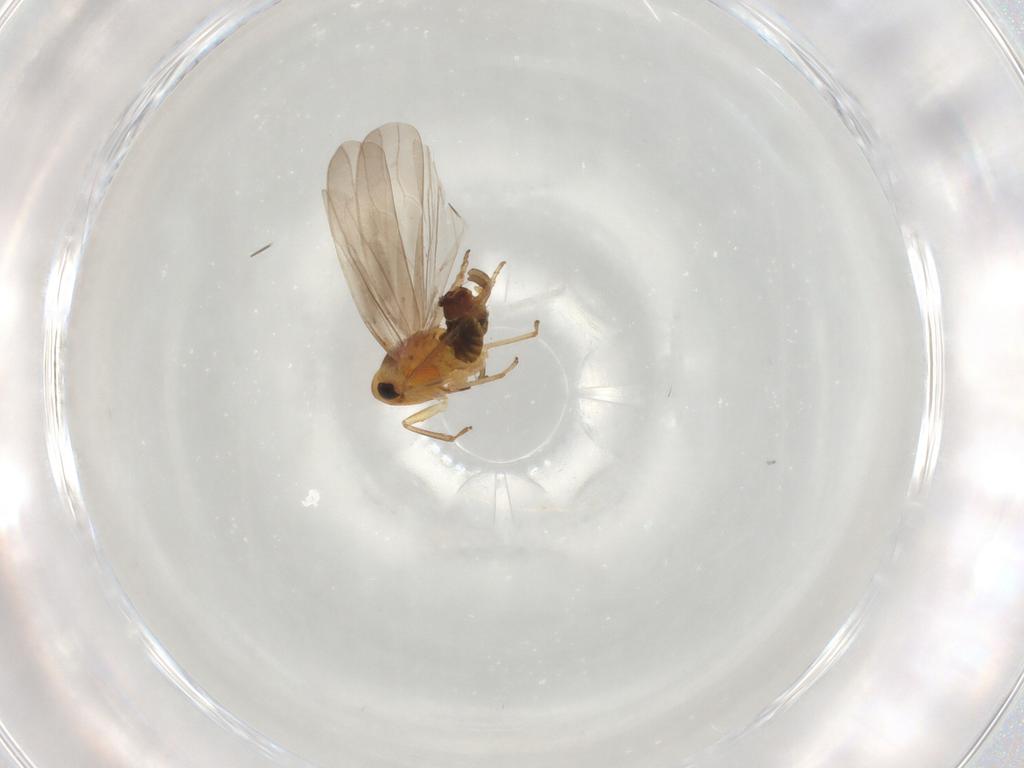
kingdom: Animalia
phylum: Arthropoda
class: Insecta
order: Hemiptera
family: Cicadellidae
